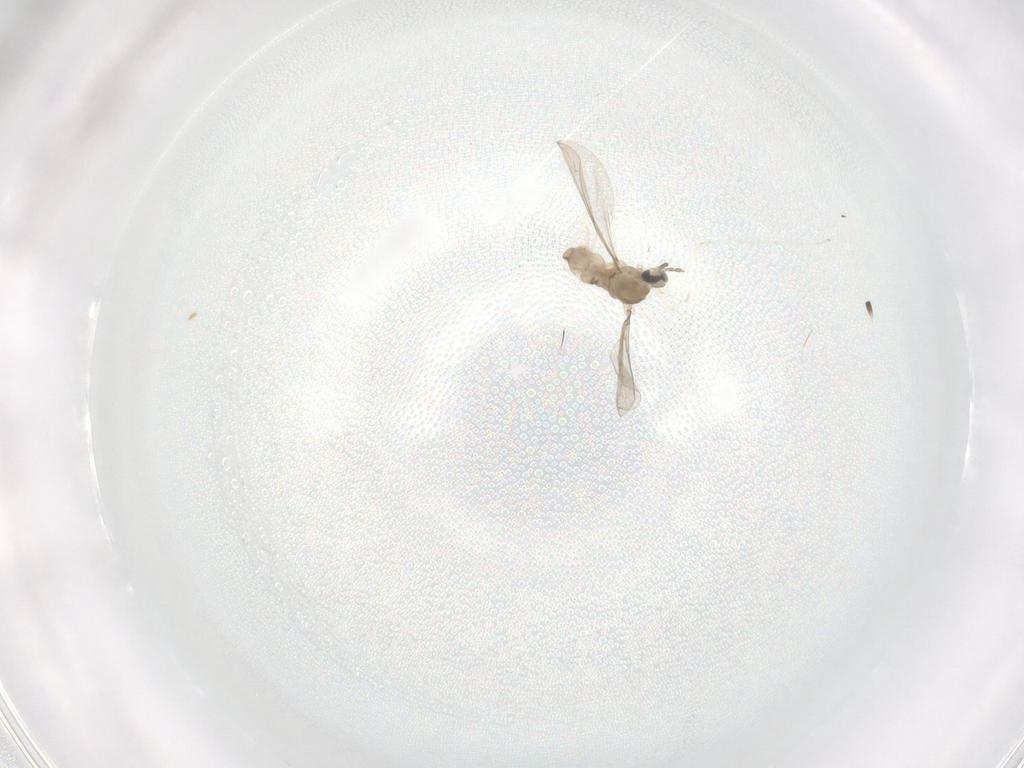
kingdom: Animalia
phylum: Arthropoda
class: Insecta
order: Diptera
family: Cecidomyiidae
